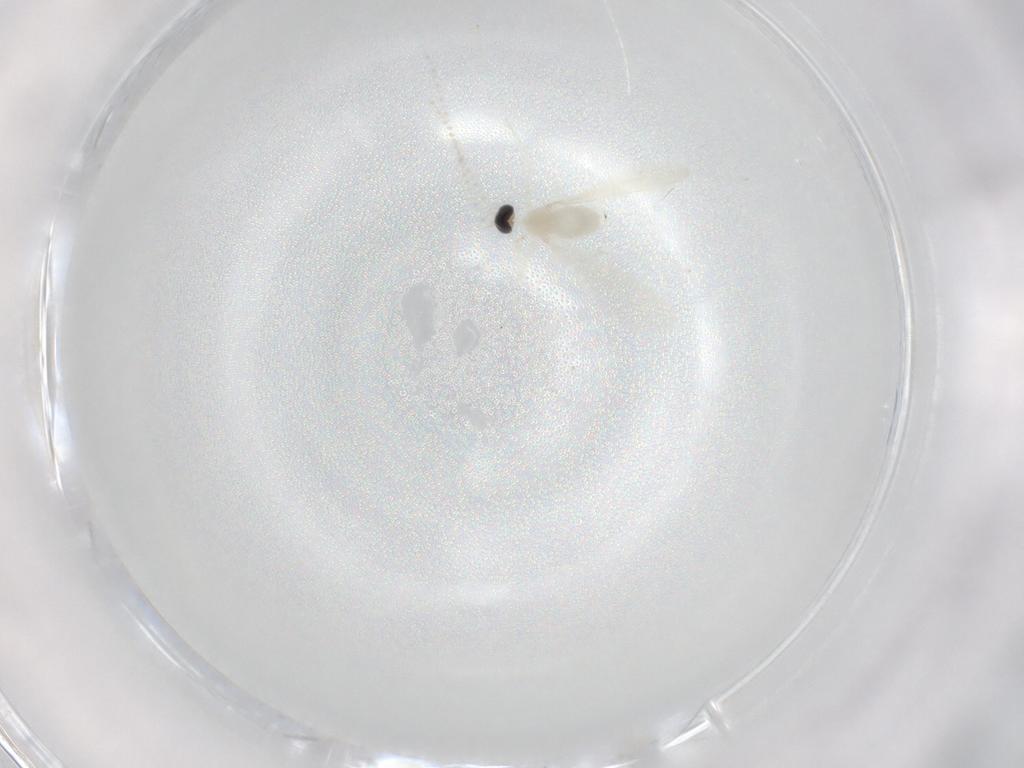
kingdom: Animalia
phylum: Arthropoda
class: Insecta
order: Diptera
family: Cecidomyiidae
